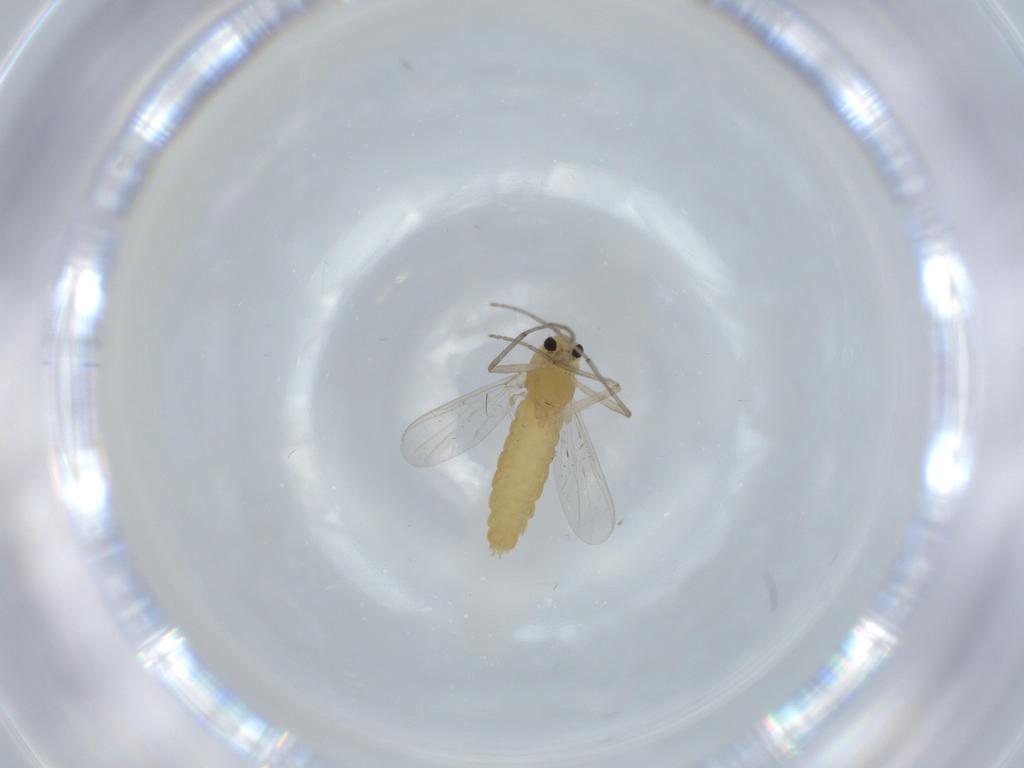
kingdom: Animalia
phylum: Arthropoda
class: Insecta
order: Diptera
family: Chironomidae
